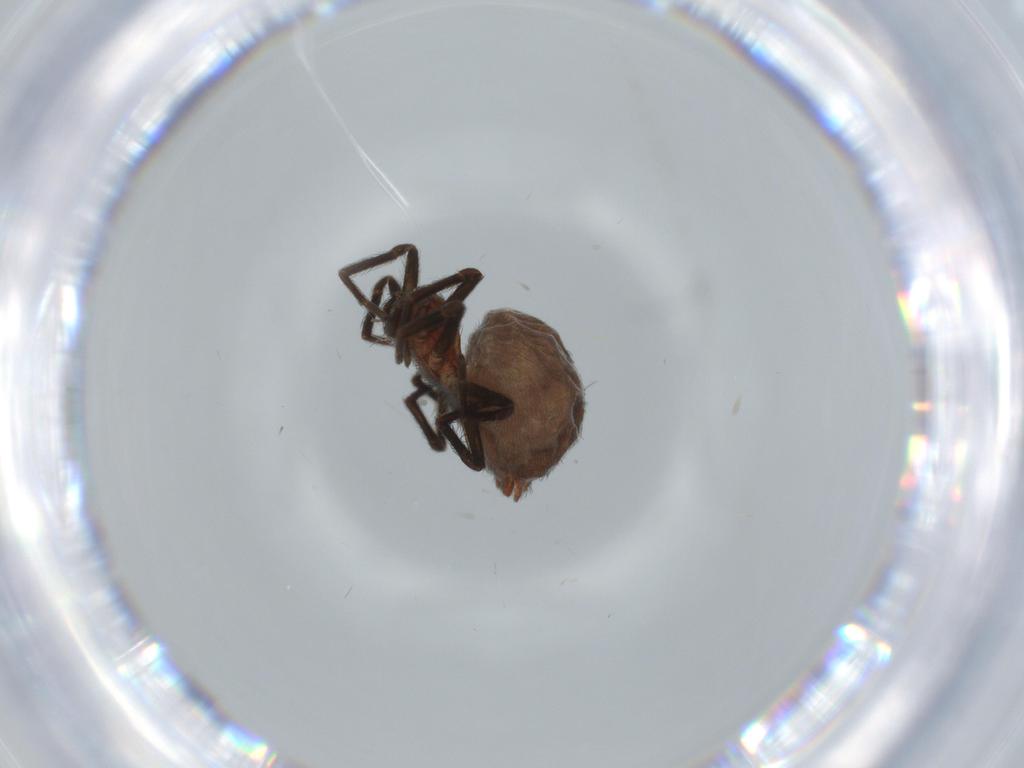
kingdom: Animalia
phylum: Arthropoda
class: Arachnida
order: Araneae
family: Dictynidae
